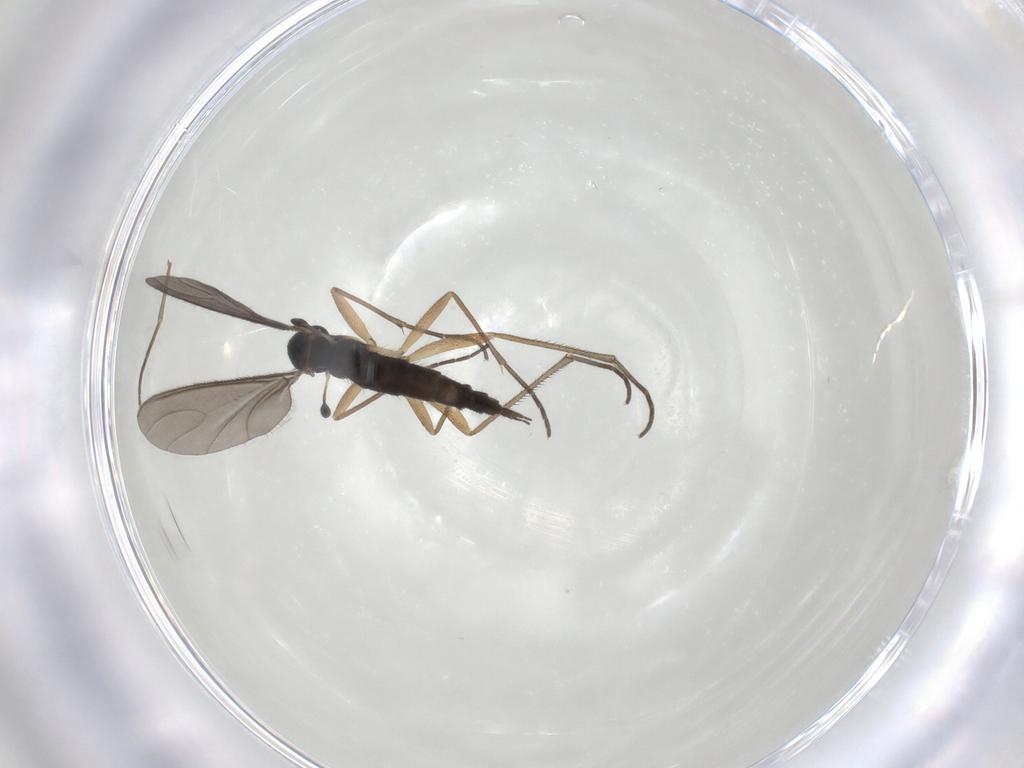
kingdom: Animalia
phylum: Arthropoda
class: Insecta
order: Diptera
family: Sciaridae
